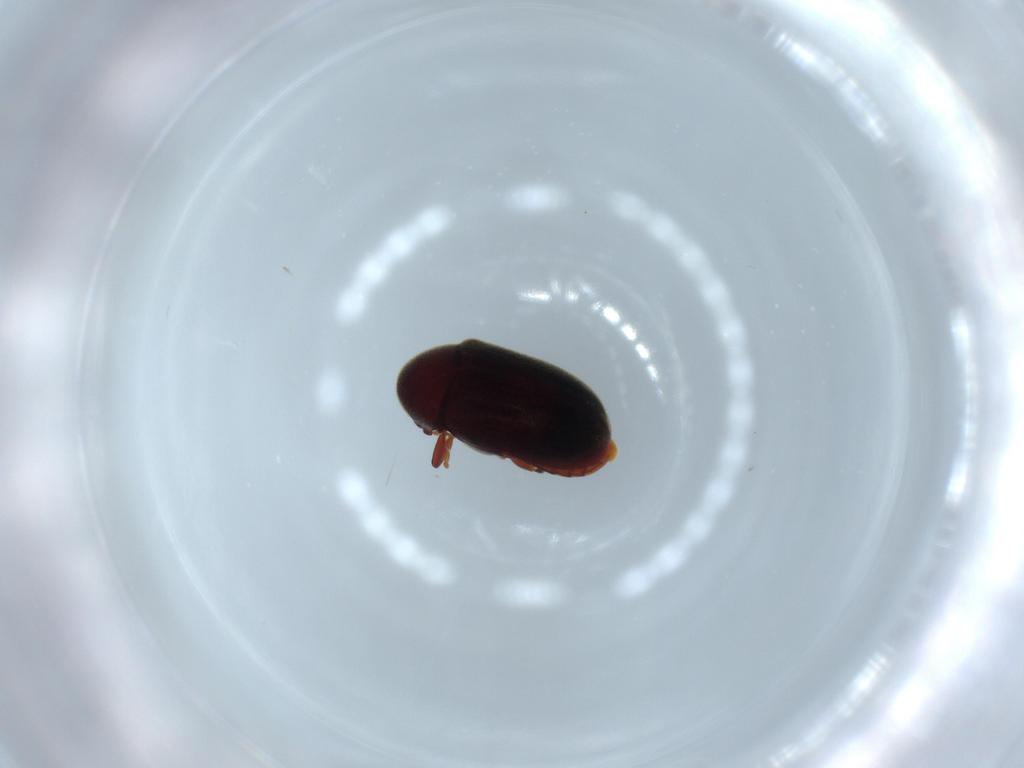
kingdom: Animalia
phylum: Arthropoda
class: Insecta
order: Coleoptera
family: Ptinidae
